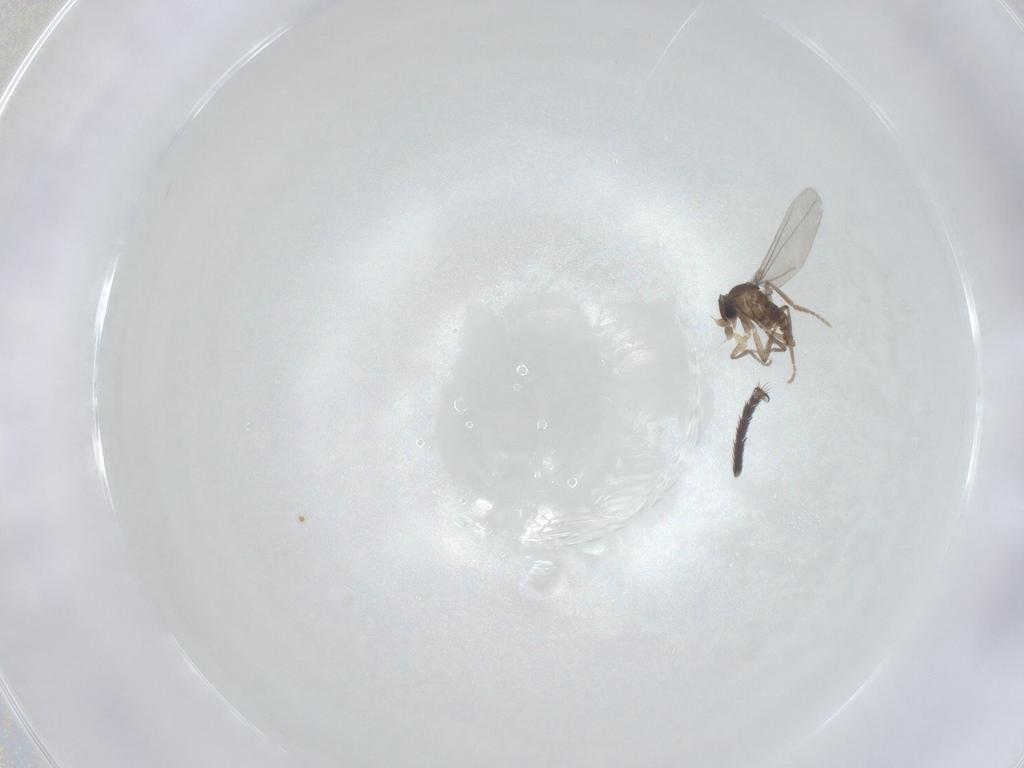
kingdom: Animalia
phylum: Arthropoda
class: Insecta
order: Diptera
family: Phoridae
